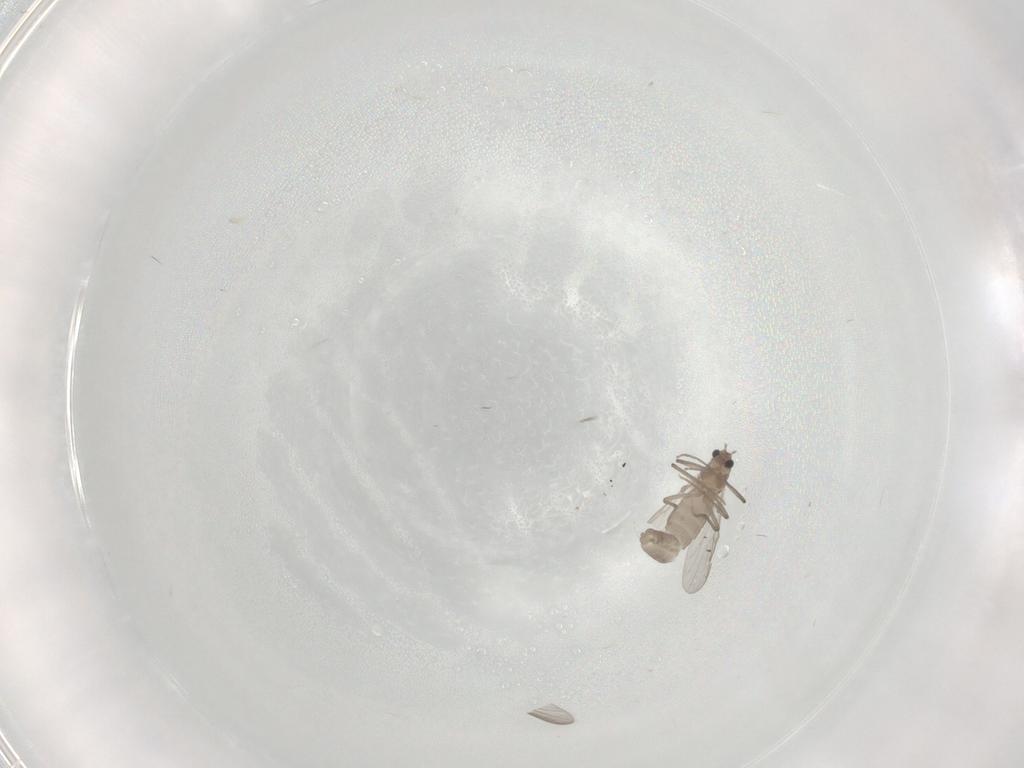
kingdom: Animalia
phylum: Arthropoda
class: Insecta
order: Diptera
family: Chironomidae
